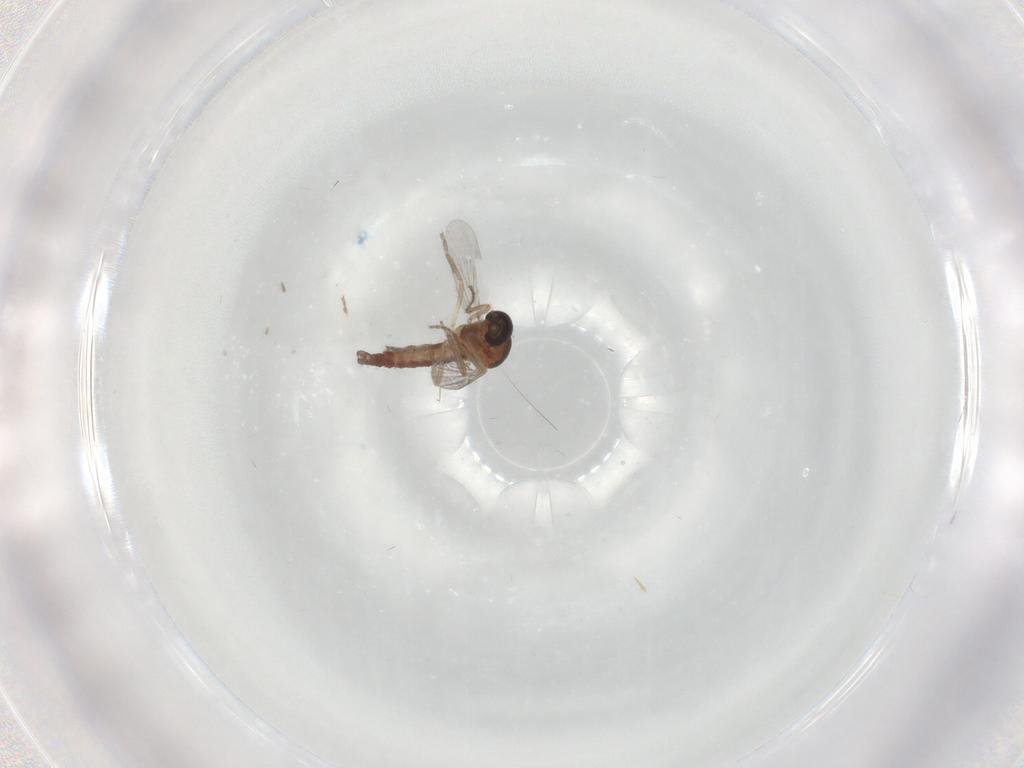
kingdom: Animalia
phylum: Arthropoda
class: Insecta
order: Diptera
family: Ceratopogonidae
